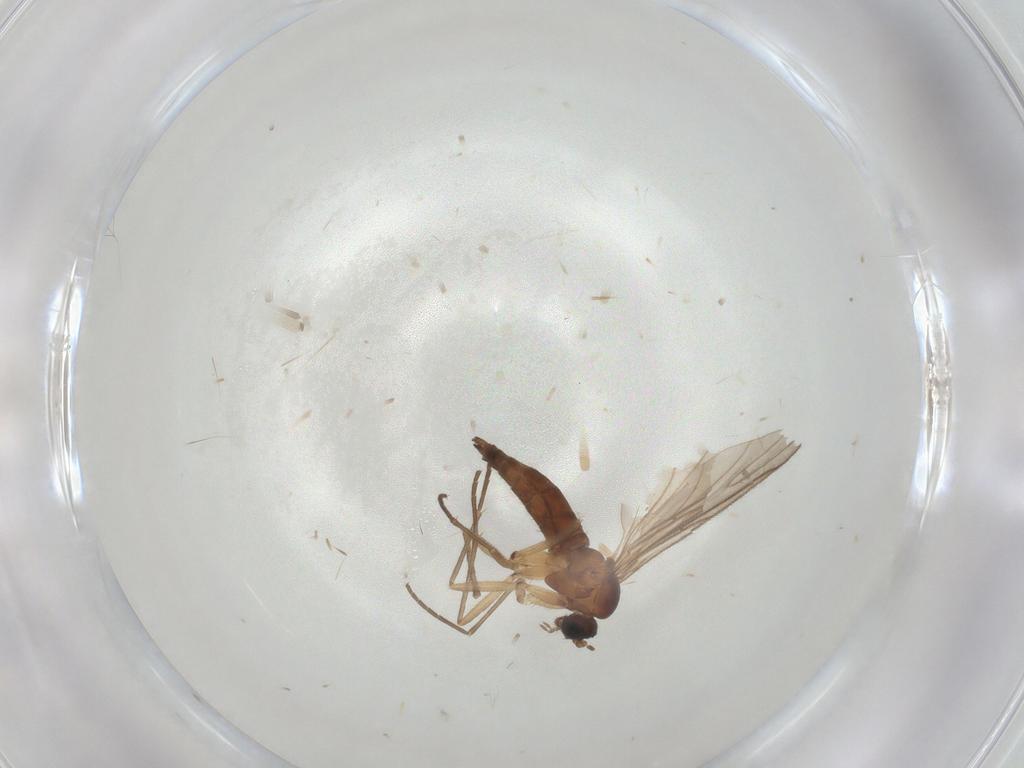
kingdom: Animalia
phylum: Arthropoda
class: Insecta
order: Diptera
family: Sciaridae
